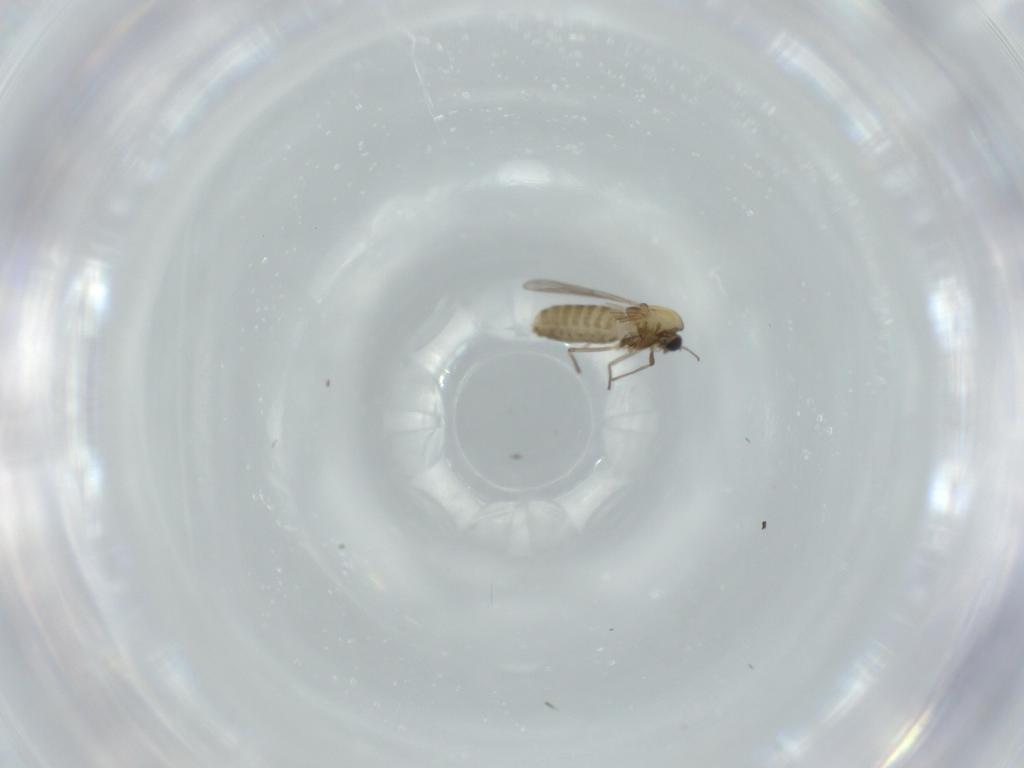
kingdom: Animalia
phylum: Arthropoda
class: Insecta
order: Diptera
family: Chironomidae
